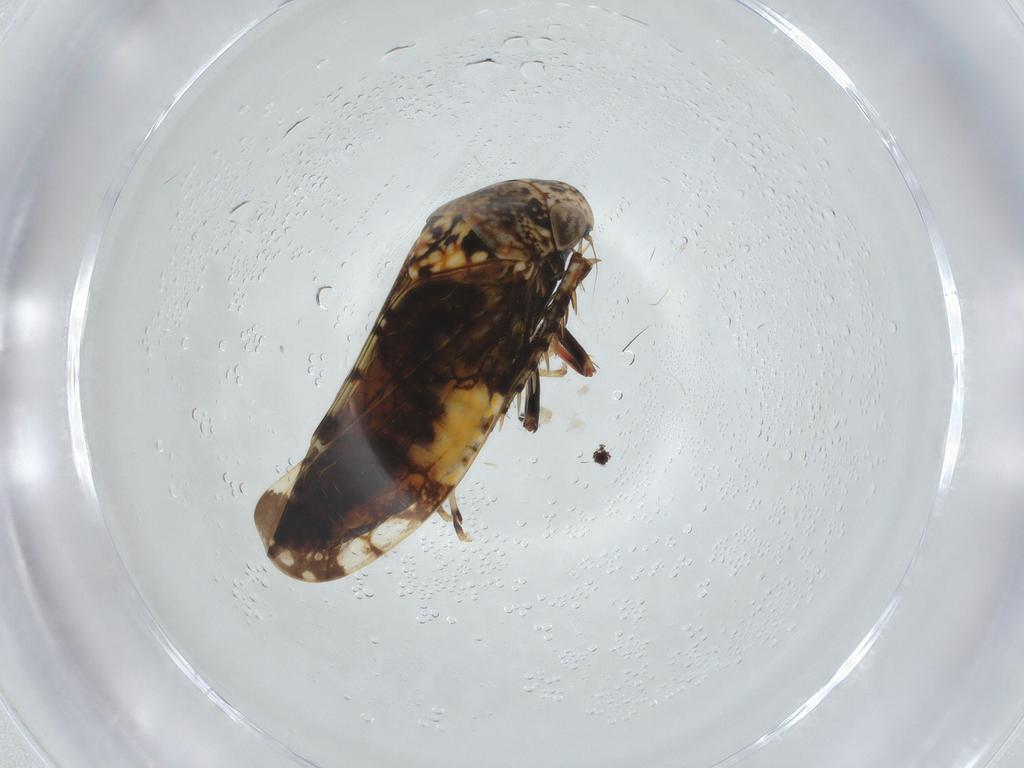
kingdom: Animalia
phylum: Arthropoda
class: Insecta
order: Hemiptera
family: Cicadellidae
